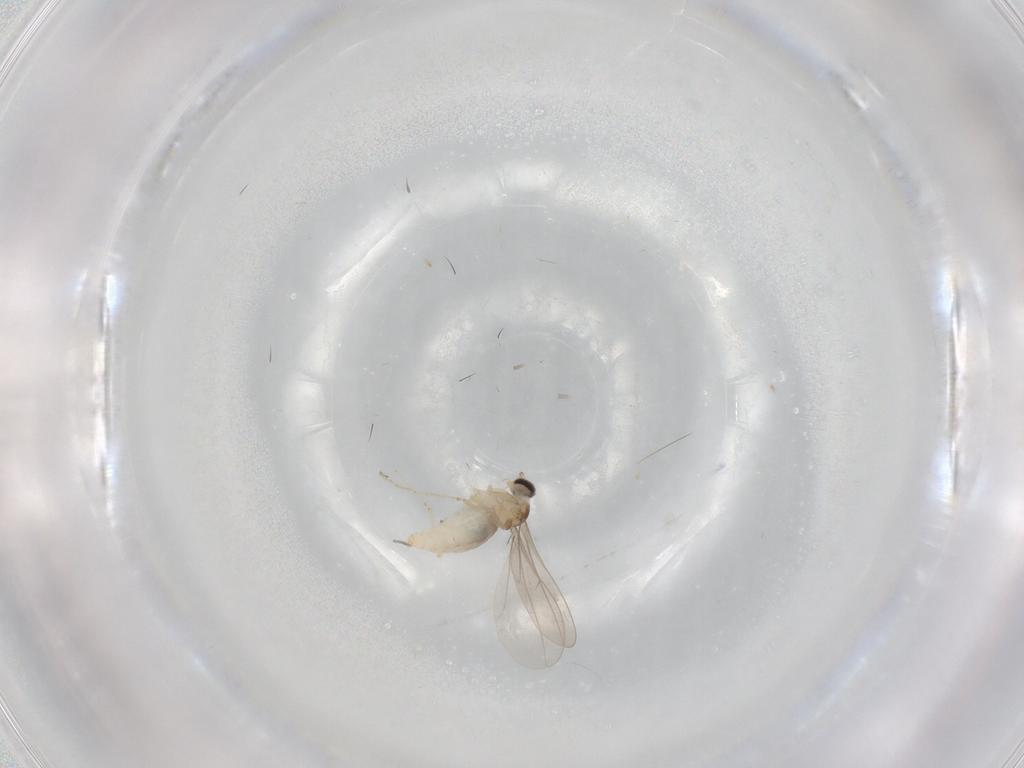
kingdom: Animalia
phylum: Arthropoda
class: Insecta
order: Diptera
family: Cecidomyiidae
